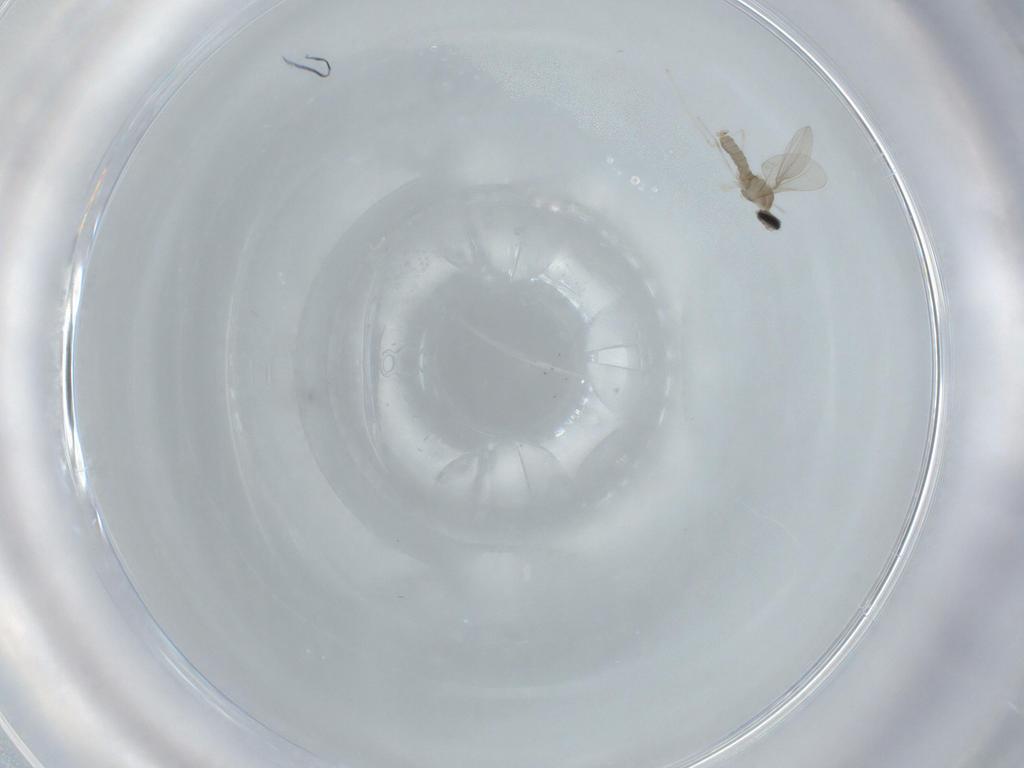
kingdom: Animalia
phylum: Arthropoda
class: Insecta
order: Diptera
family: Cecidomyiidae
